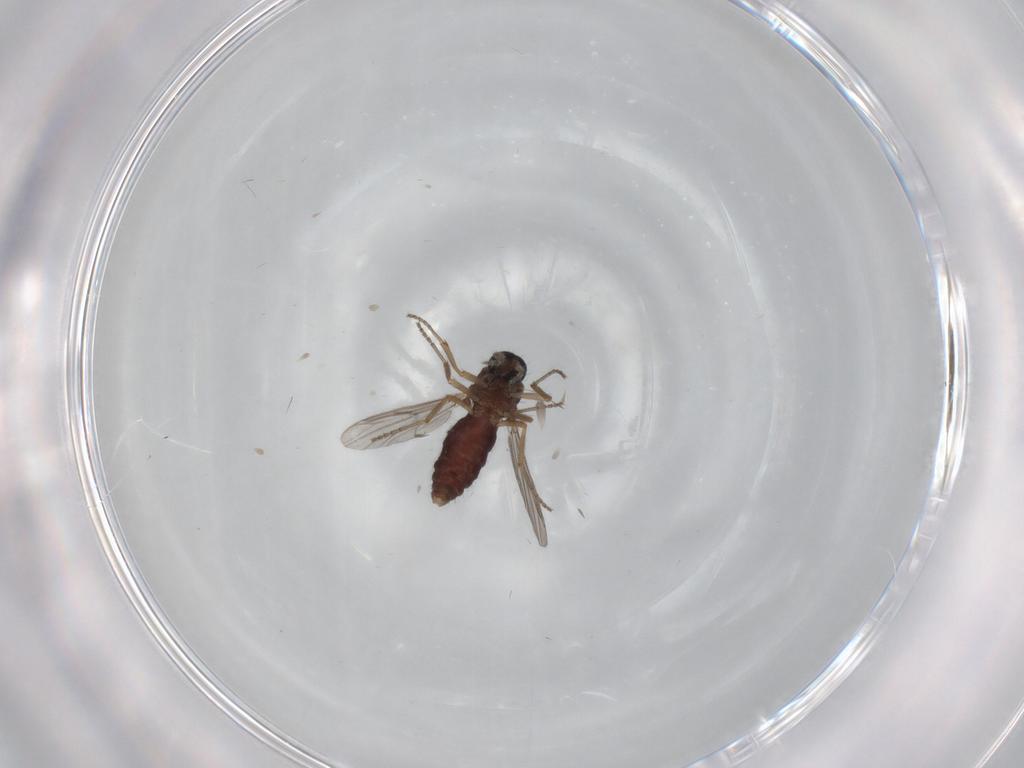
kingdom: Animalia
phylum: Arthropoda
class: Insecta
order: Diptera
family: Ceratopogonidae
